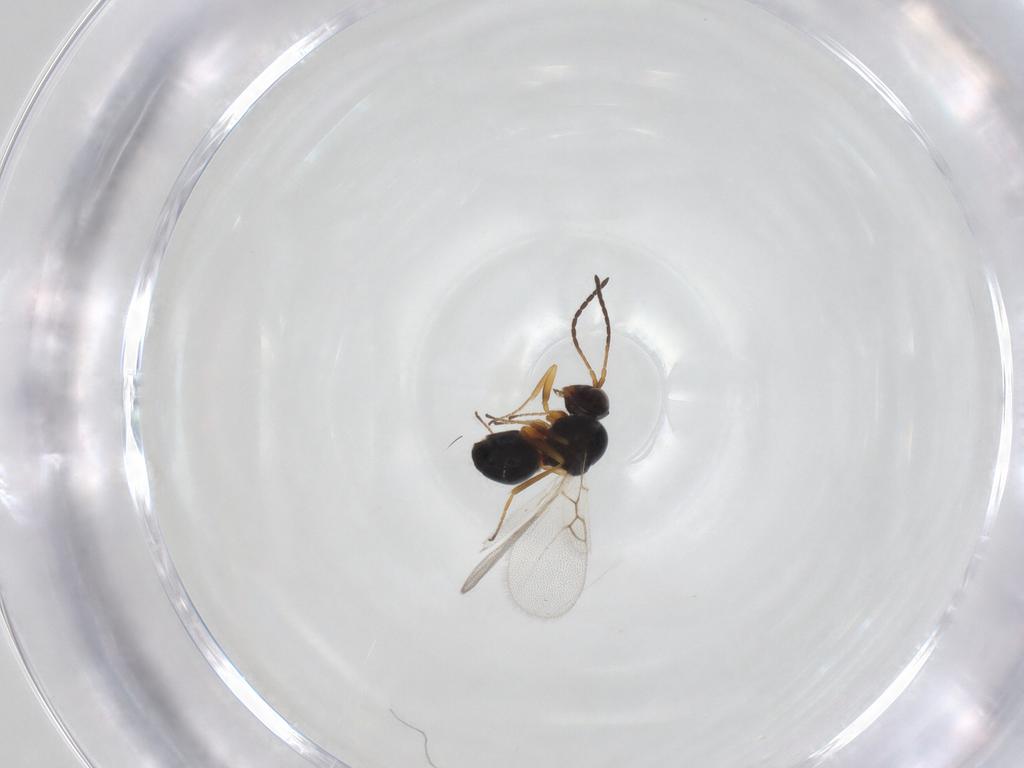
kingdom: Animalia
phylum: Arthropoda
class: Insecta
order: Hymenoptera
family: Figitidae
